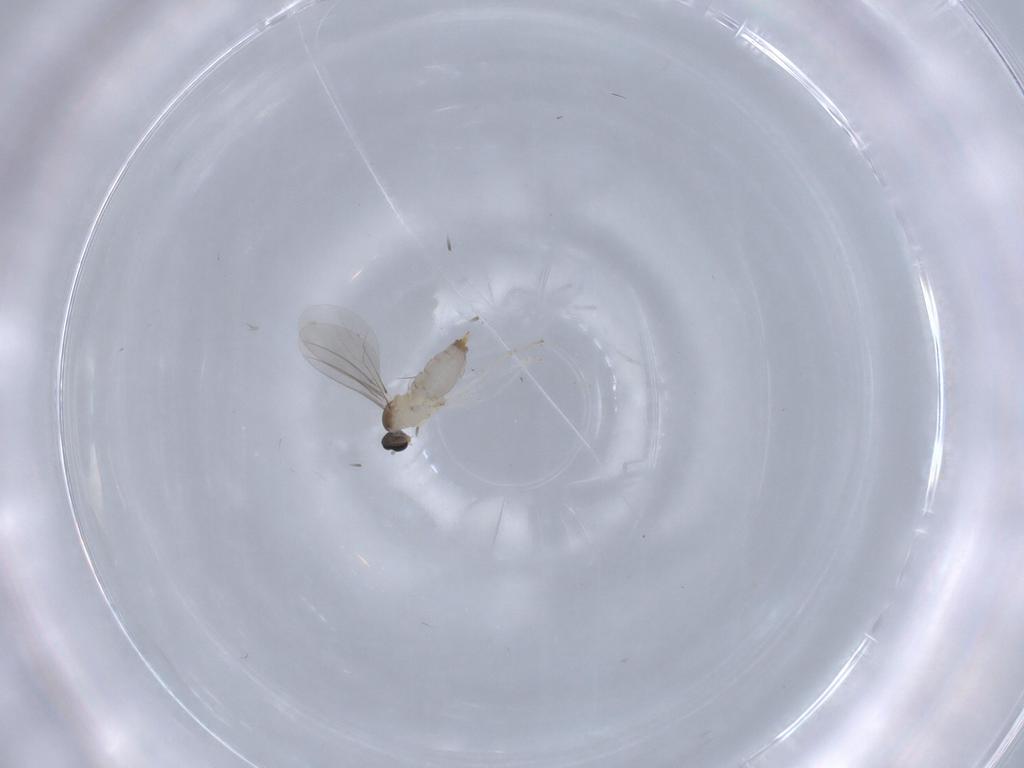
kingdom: Animalia
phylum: Arthropoda
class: Insecta
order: Diptera
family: Cecidomyiidae
